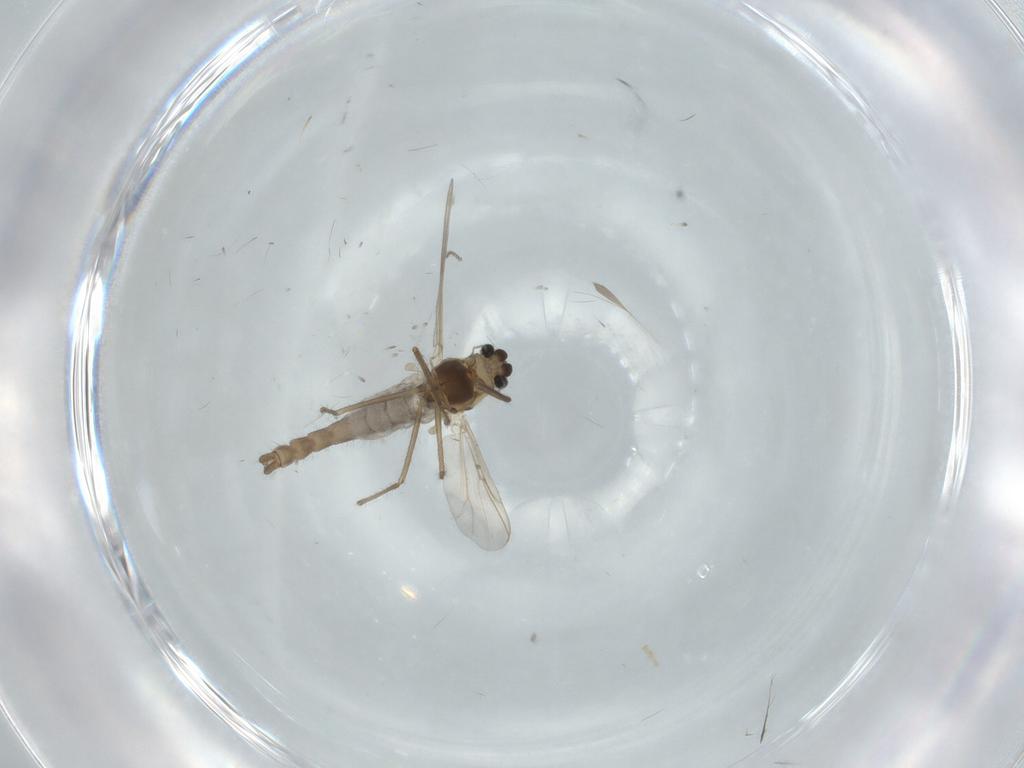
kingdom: Animalia
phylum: Arthropoda
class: Insecta
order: Diptera
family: Chironomidae
